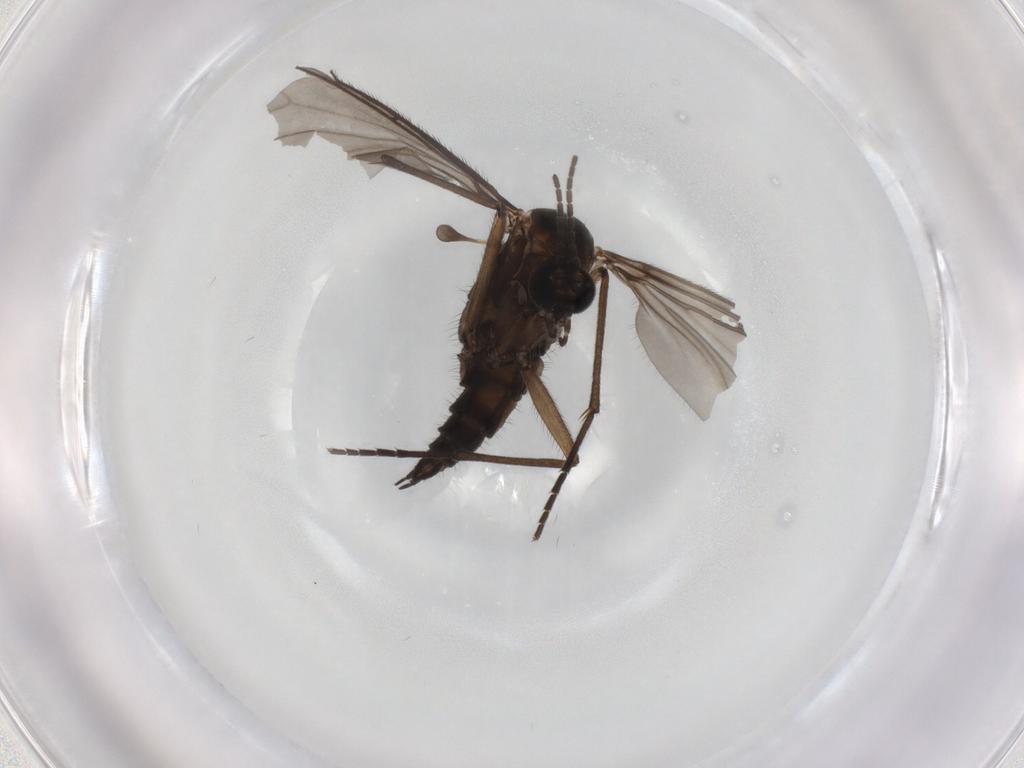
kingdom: Animalia
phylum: Arthropoda
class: Insecta
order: Diptera
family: Sciaridae
